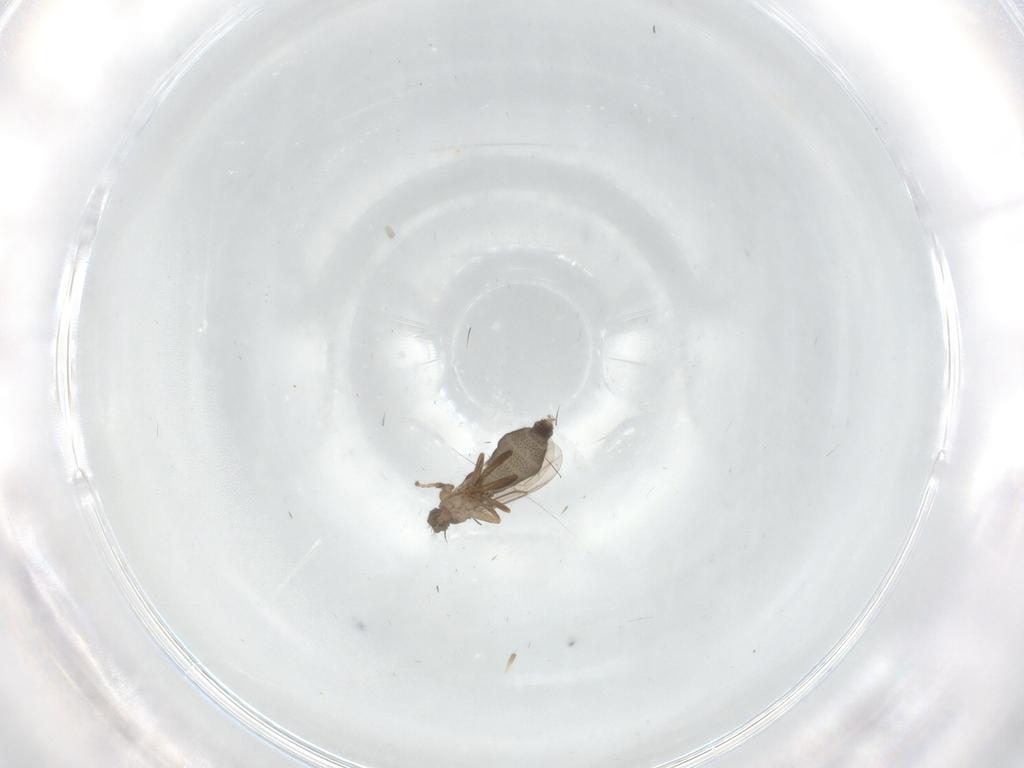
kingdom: Animalia
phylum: Arthropoda
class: Insecta
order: Diptera
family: Phoridae
